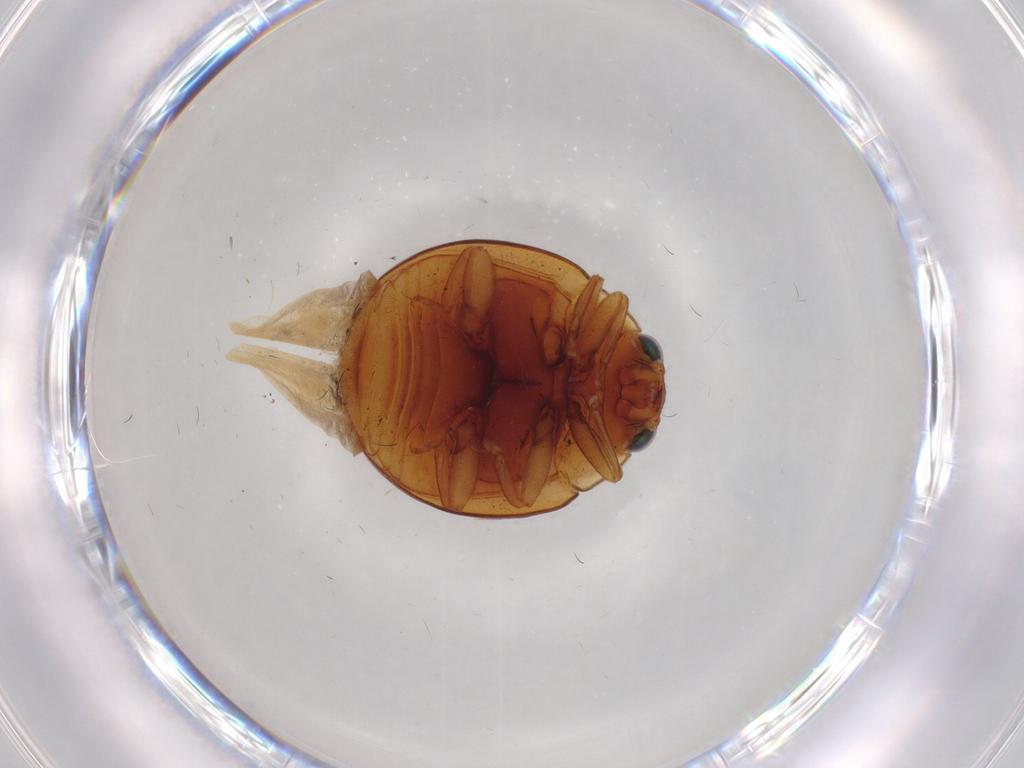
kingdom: Animalia
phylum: Arthropoda
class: Insecta
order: Coleoptera
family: Coccinellidae
